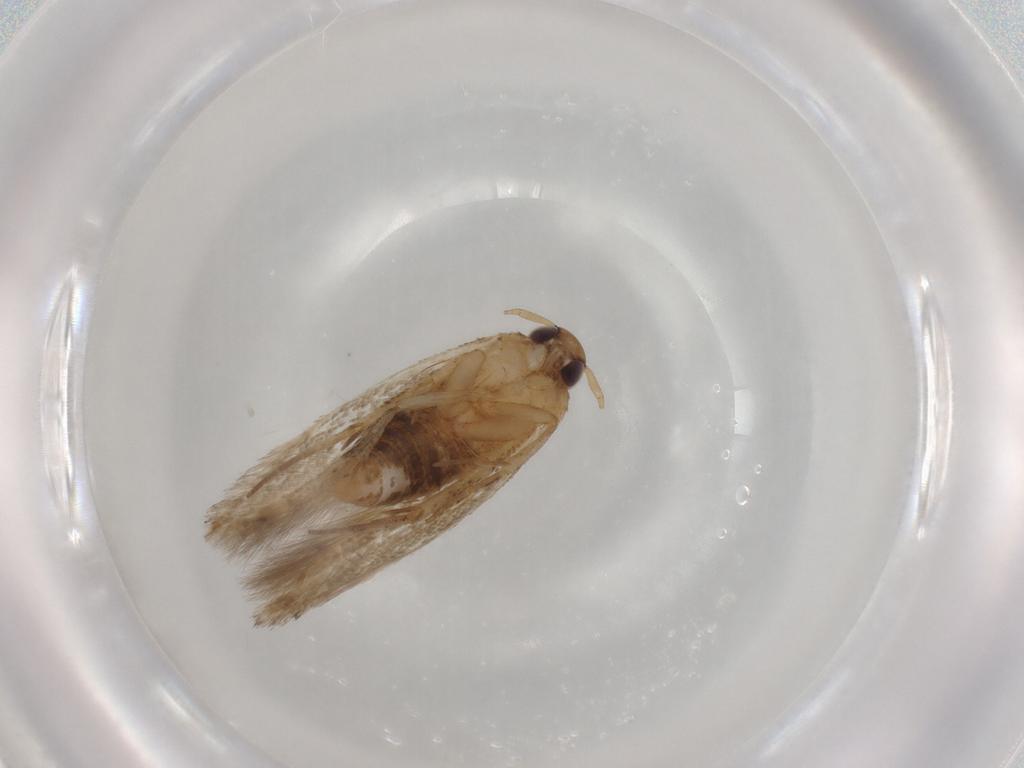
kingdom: Animalia
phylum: Arthropoda
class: Insecta
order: Lepidoptera
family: Cosmopterigidae
